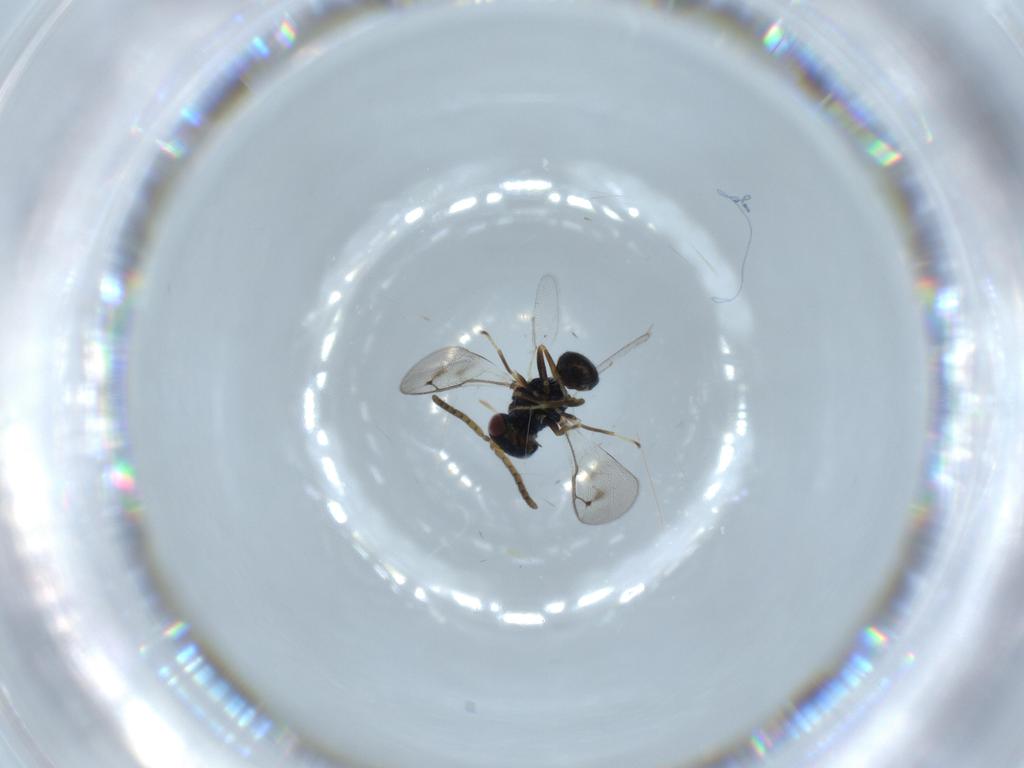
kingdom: Animalia
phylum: Arthropoda
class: Insecta
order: Hymenoptera
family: Pteromalidae
